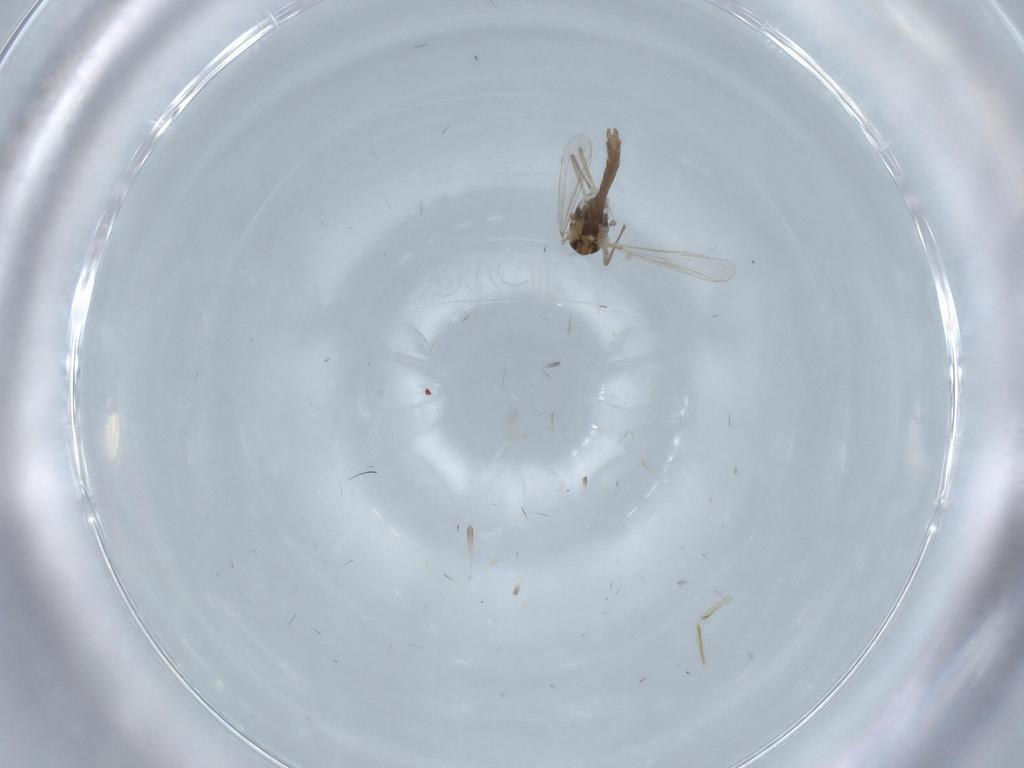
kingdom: Animalia
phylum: Arthropoda
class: Insecta
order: Diptera
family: Chironomidae
